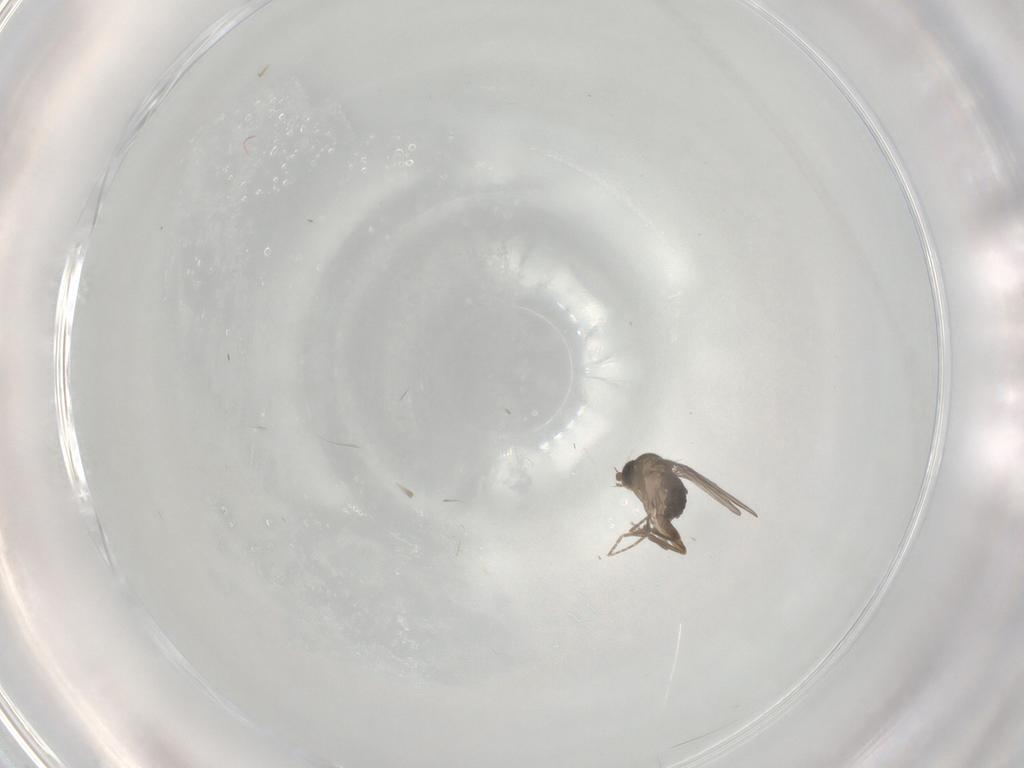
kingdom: Animalia
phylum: Arthropoda
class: Insecta
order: Diptera
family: Phoridae
